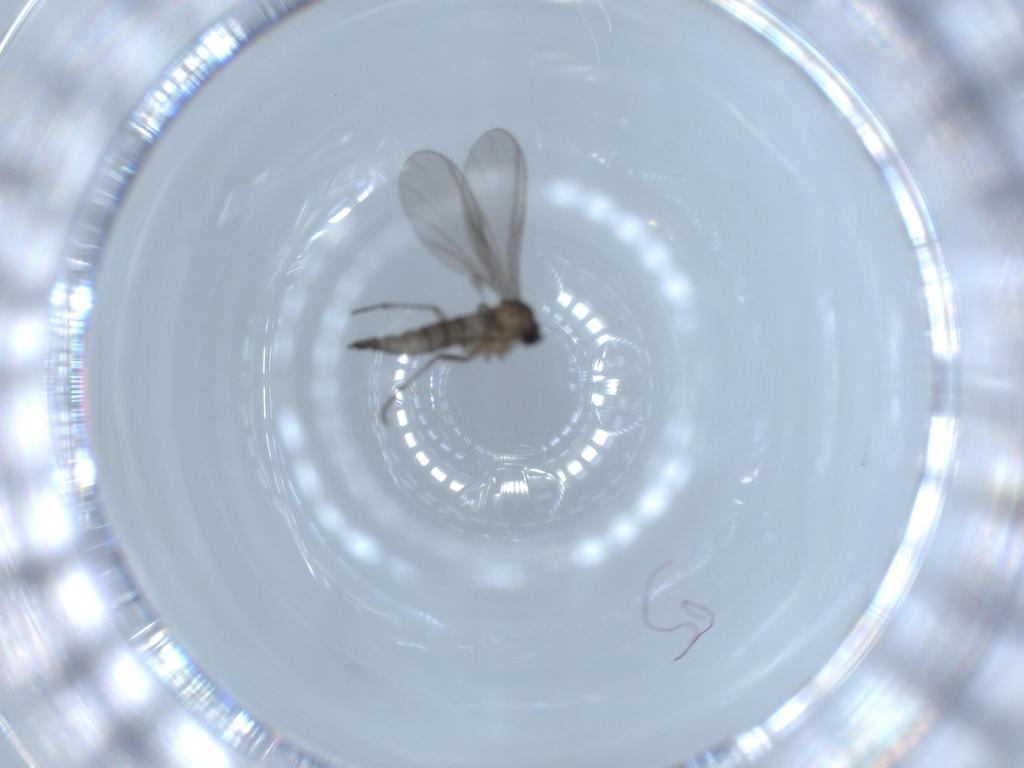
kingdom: Animalia
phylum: Arthropoda
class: Insecta
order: Diptera
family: Sciaridae
